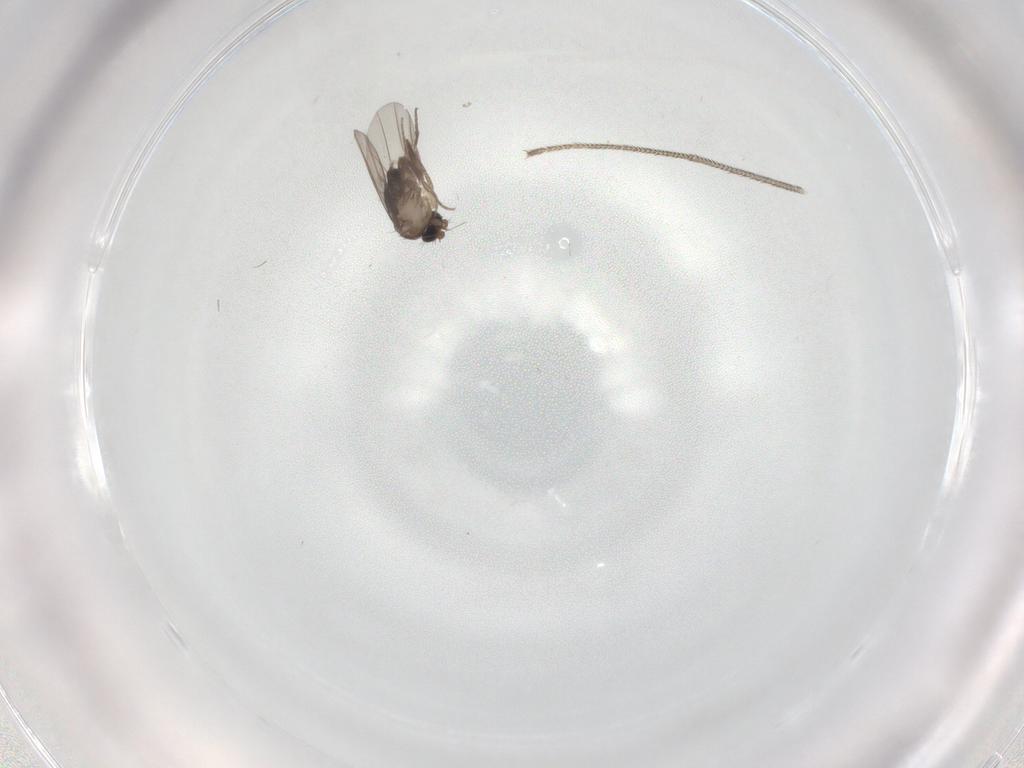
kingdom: Animalia
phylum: Arthropoda
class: Insecta
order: Diptera
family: Phoridae
